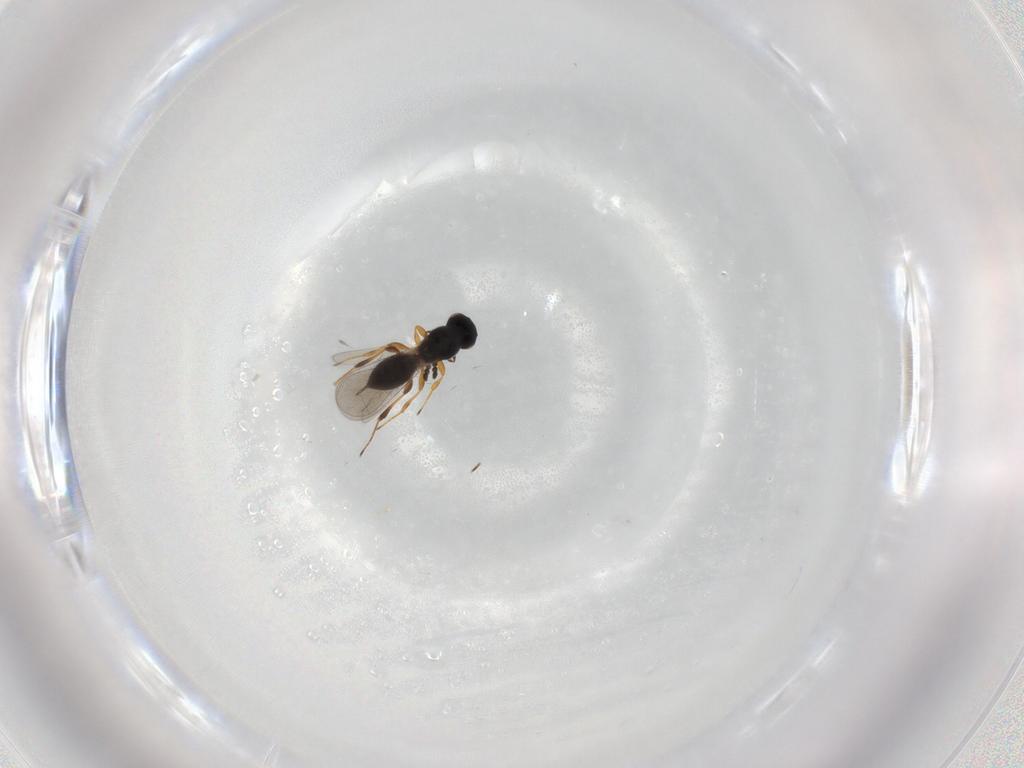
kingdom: Animalia
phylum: Arthropoda
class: Insecta
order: Hymenoptera
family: Platygastridae
